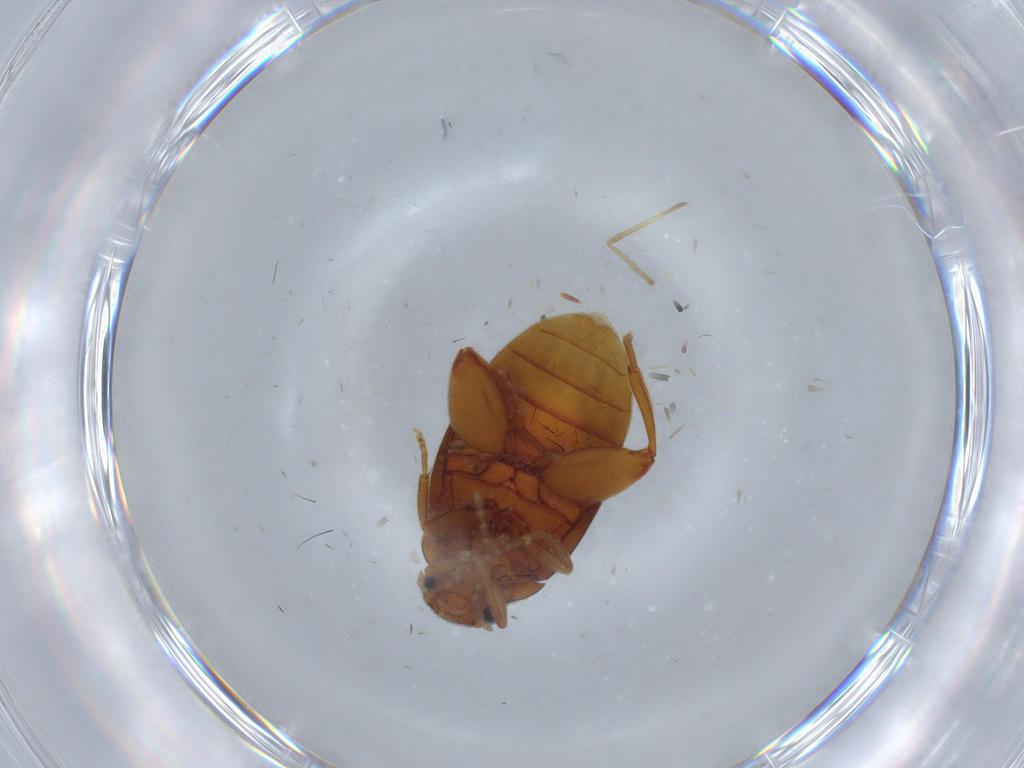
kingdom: Animalia
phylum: Arthropoda
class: Insecta
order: Coleoptera
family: Scirtidae
